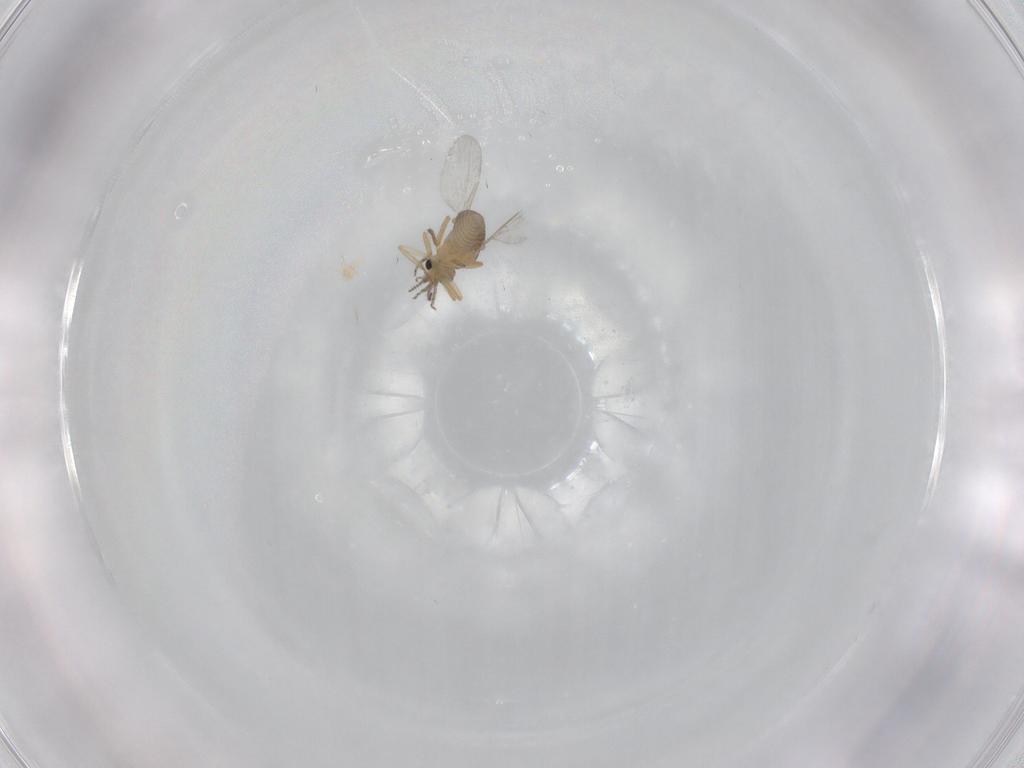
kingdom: Animalia
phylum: Arthropoda
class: Insecta
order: Diptera
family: Ceratopogonidae
